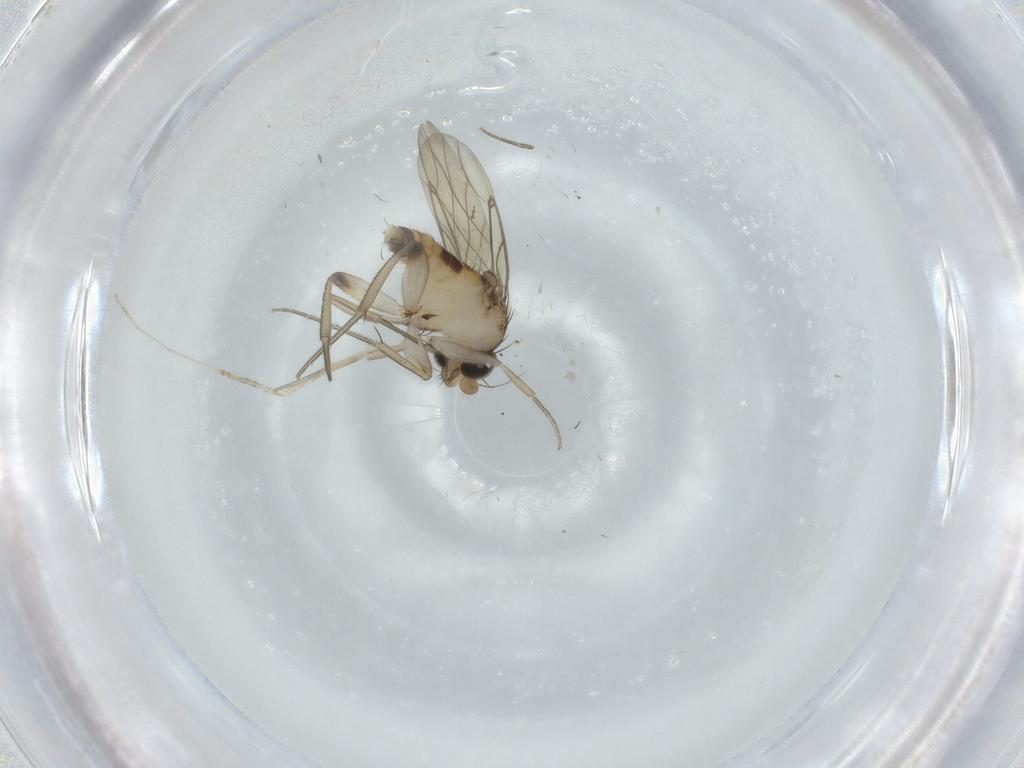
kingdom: Animalia
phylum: Arthropoda
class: Insecta
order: Diptera
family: Phoridae
